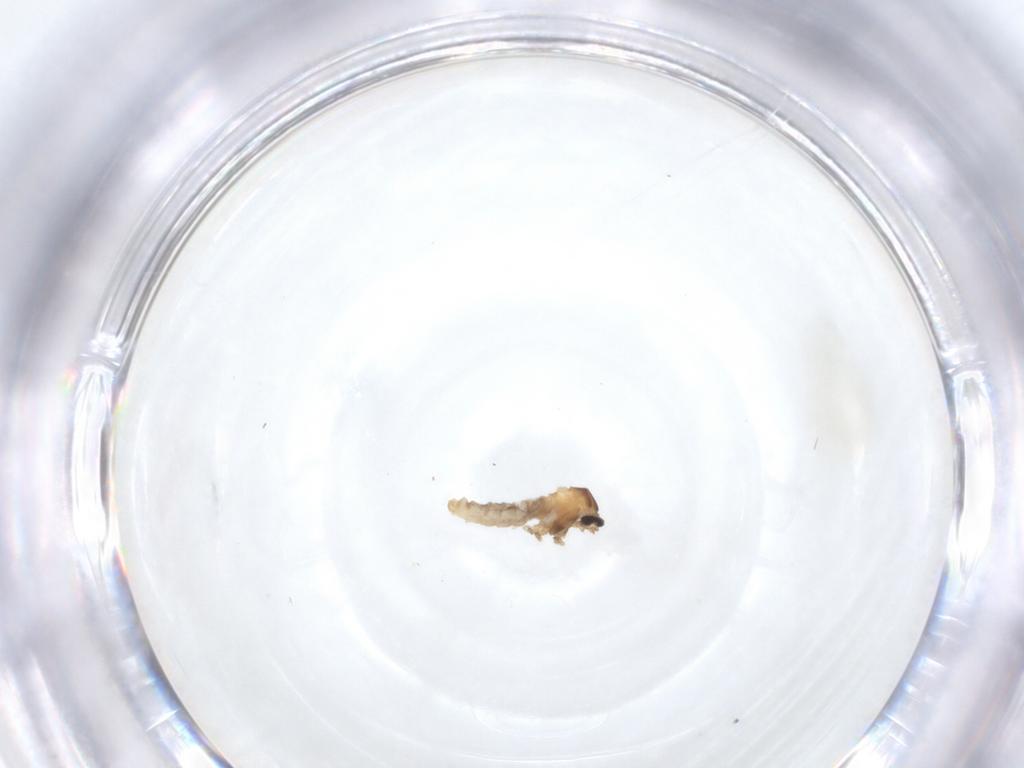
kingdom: Animalia
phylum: Arthropoda
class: Insecta
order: Diptera
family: Cecidomyiidae
